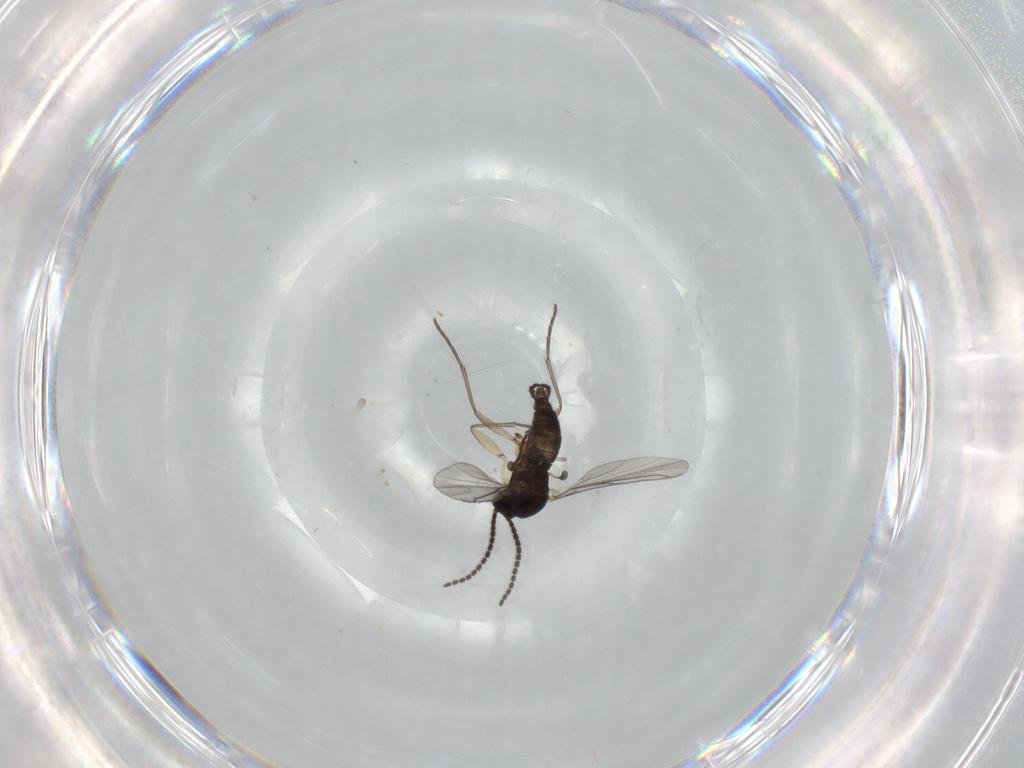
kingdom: Animalia
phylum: Arthropoda
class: Insecta
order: Diptera
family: Sciaridae
